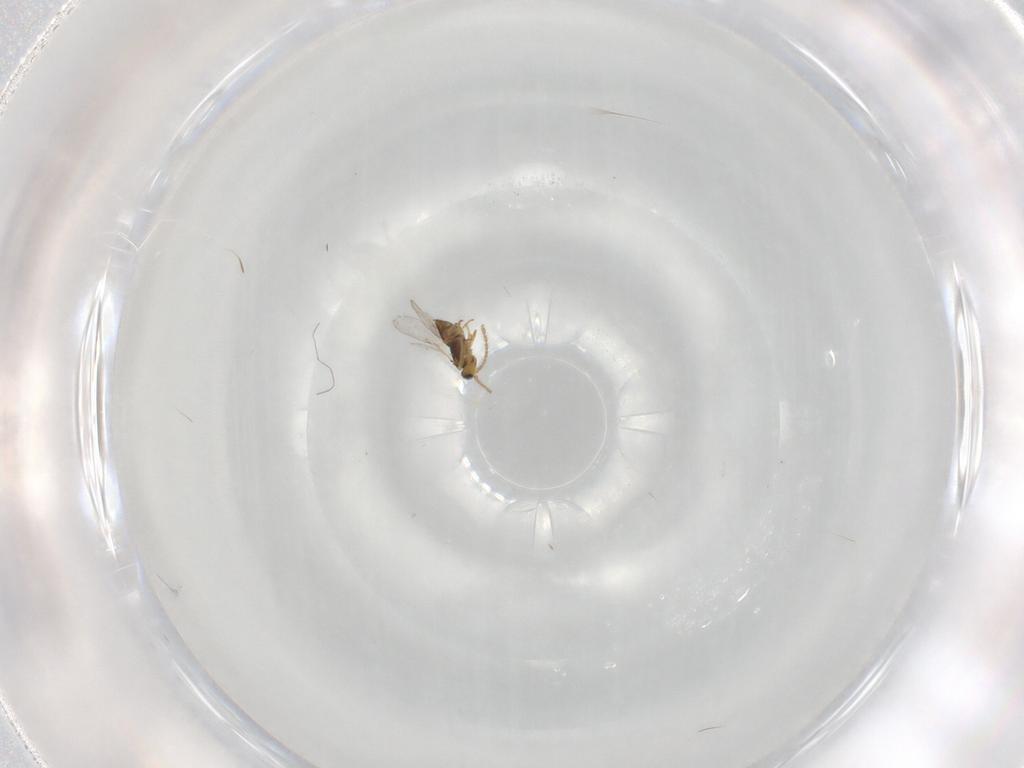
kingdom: Animalia
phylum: Arthropoda
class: Insecta
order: Hymenoptera
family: Encyrtidae
